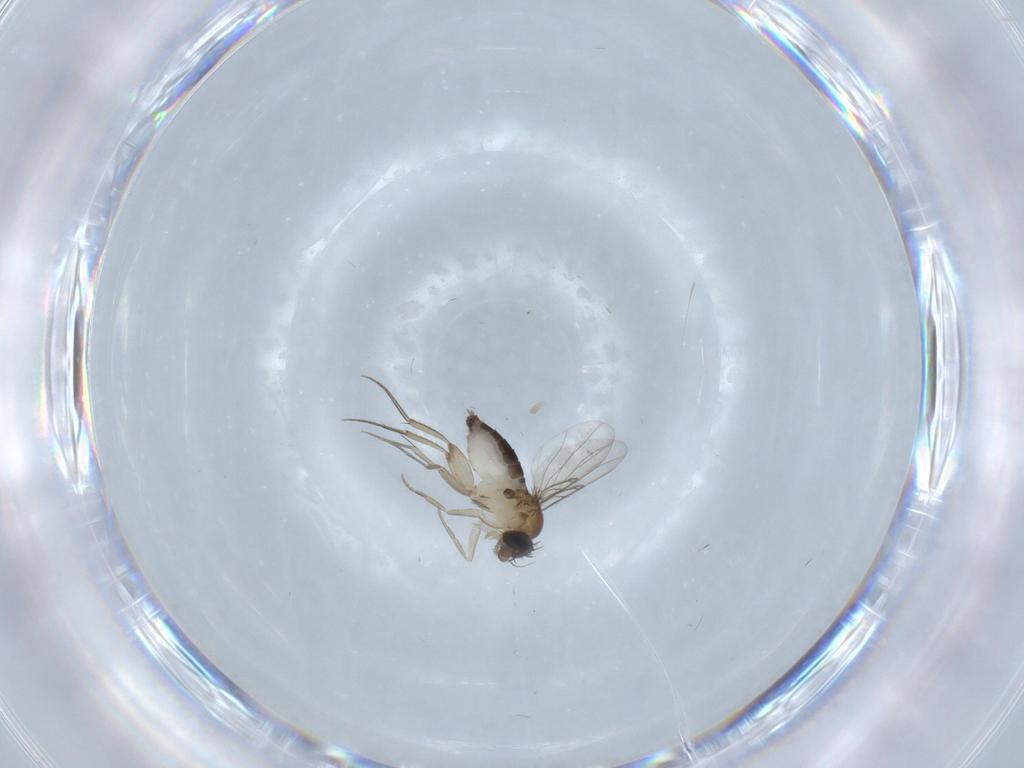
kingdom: Animalia
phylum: Arthropoda
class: Insecta
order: Diptera
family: Phoridae
